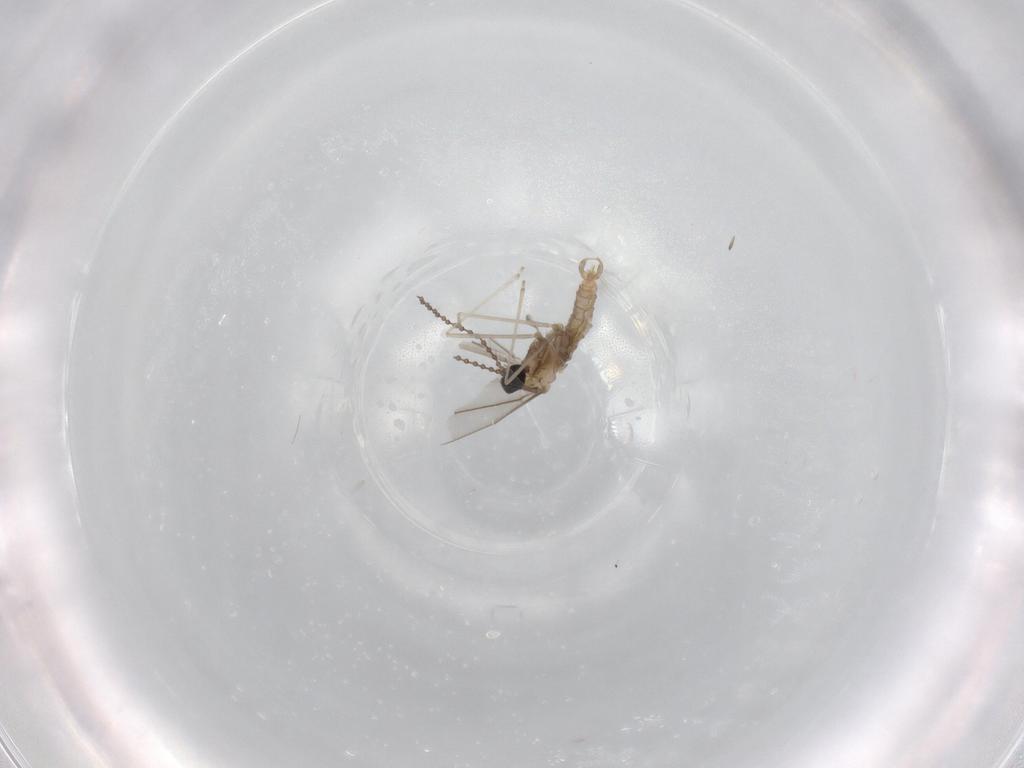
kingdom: Animalia
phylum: Arthropoda
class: Insecta
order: Diptera
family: Cecidomyiidae
